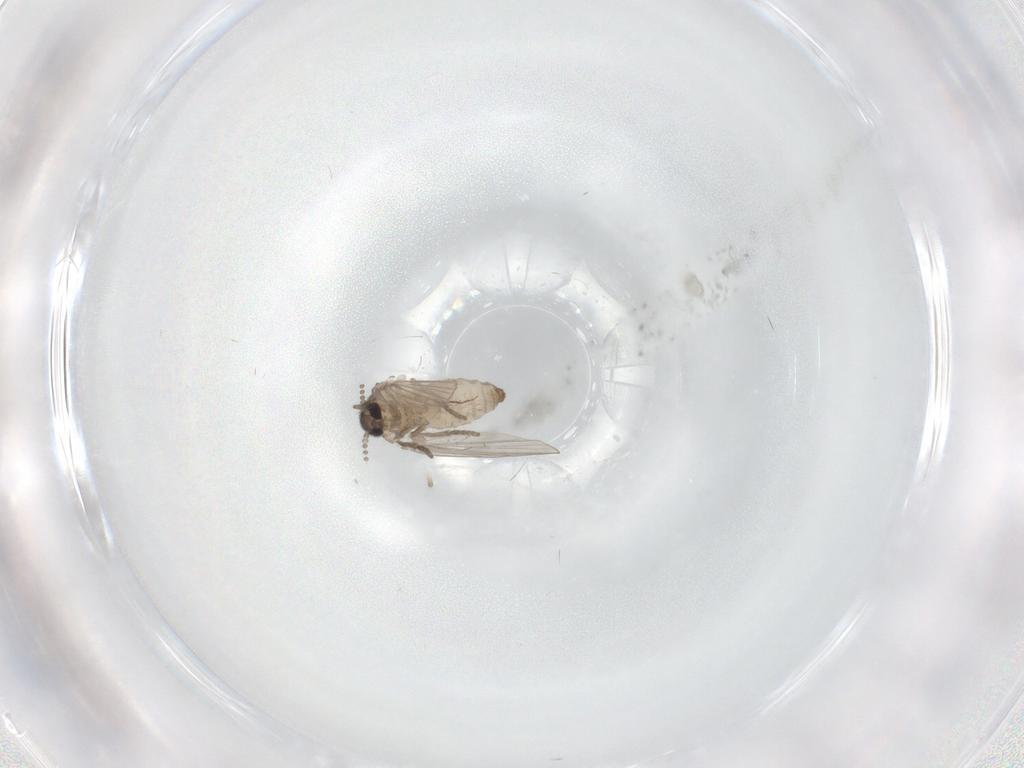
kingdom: Animalia
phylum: Arthropoda
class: Insecta
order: Diptera
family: Psychodidae
